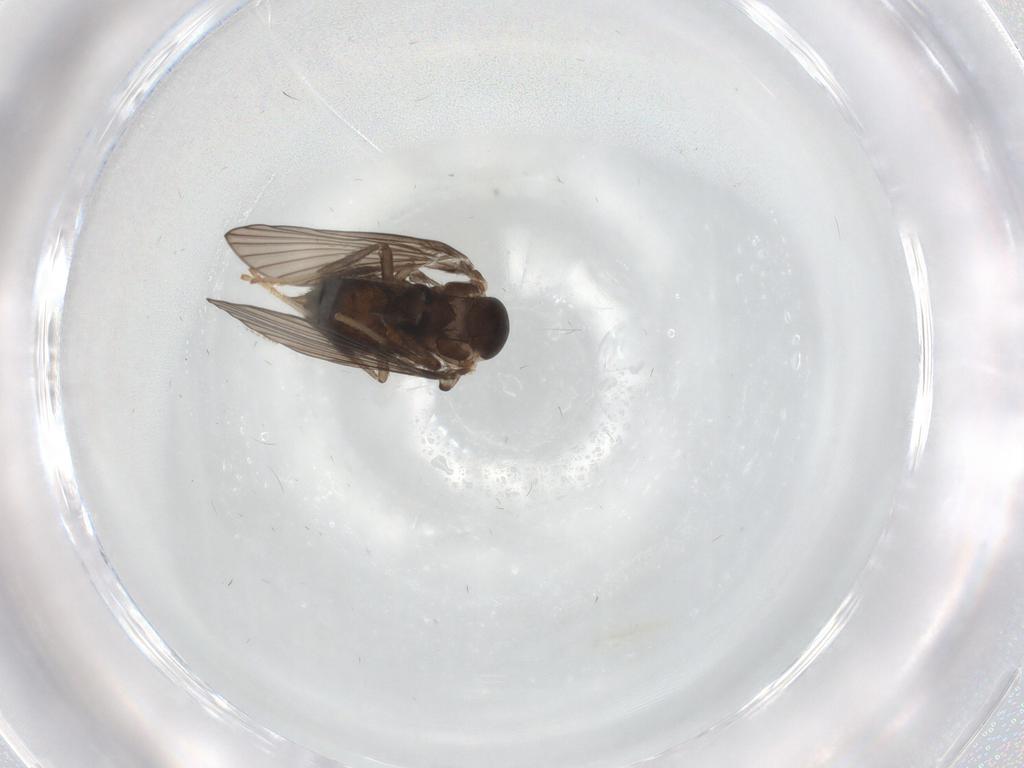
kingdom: Animalia
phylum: Arthropoda
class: Insecta
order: Diptera
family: Psychodidae
